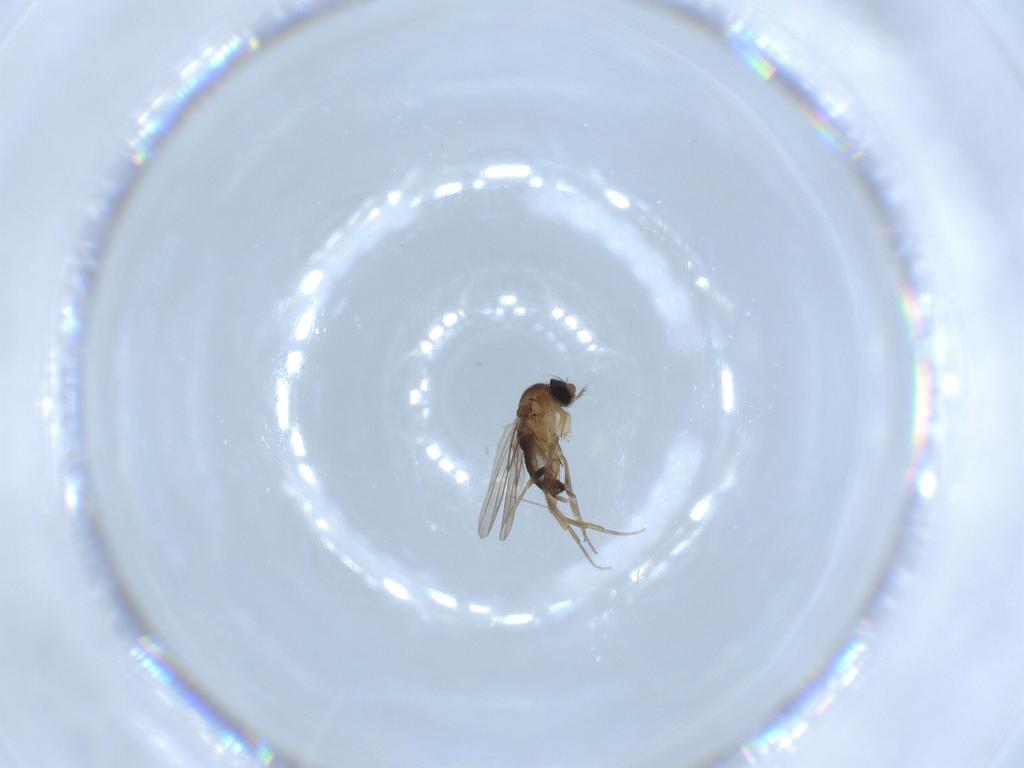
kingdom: Animalia
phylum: Arthropoda
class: Insecta
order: Diptera
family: Phoridae
